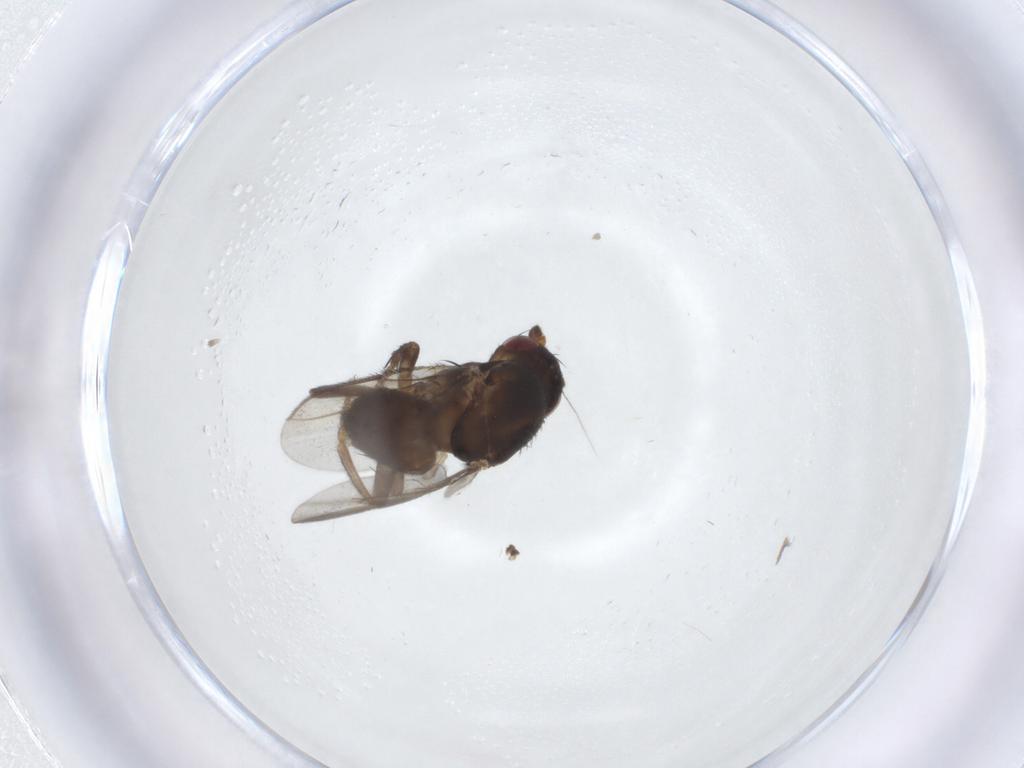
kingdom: Animalia
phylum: Arthropoda
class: Insecta
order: Diptera
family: Sphaeroceridae
